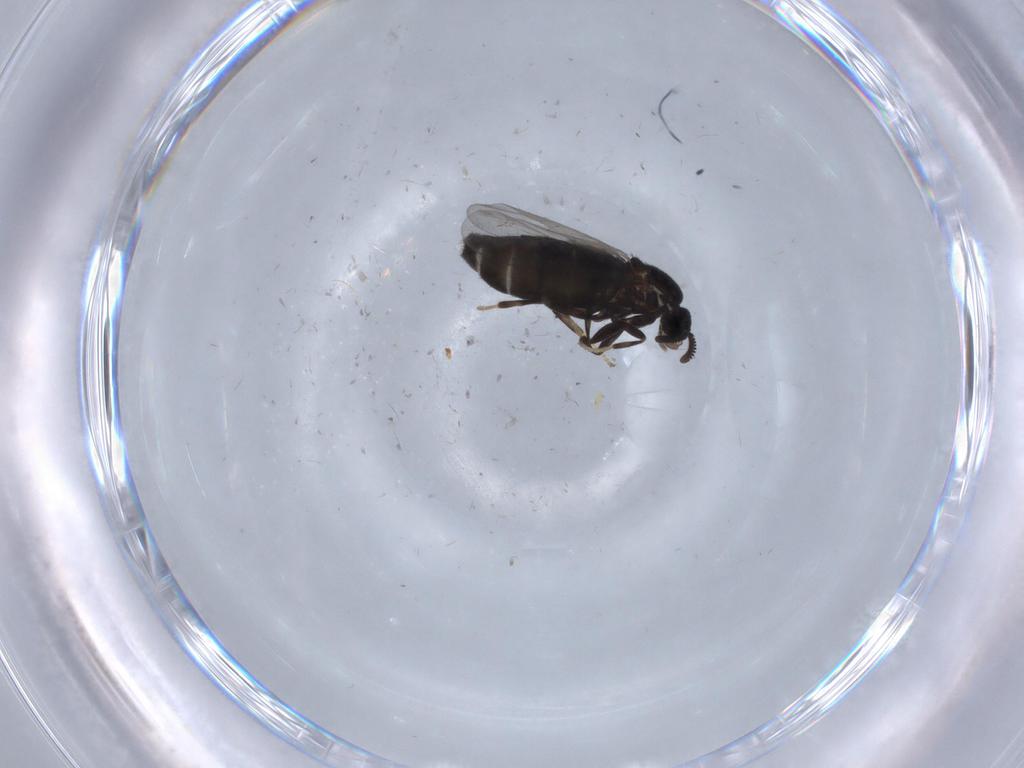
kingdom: Animalia
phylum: Arthropoda
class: Insecta
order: Diptera
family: Scatopsidae
